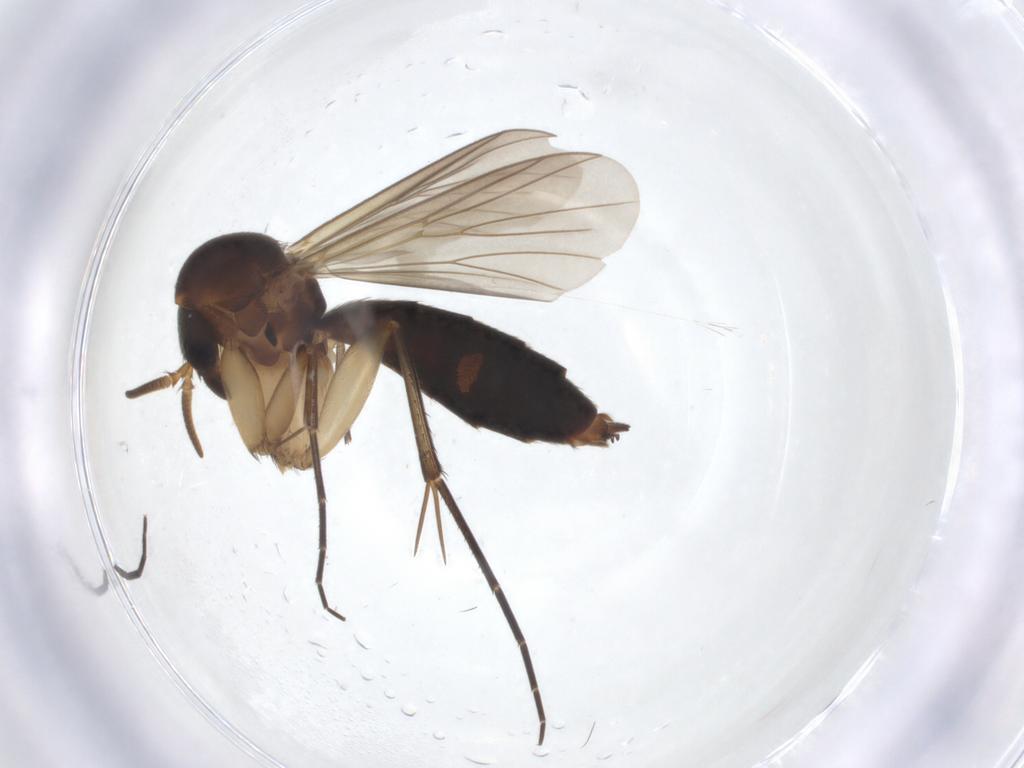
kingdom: Animalia
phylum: Arthropoda
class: Insecta
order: Diptera
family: Mycetophilidae
